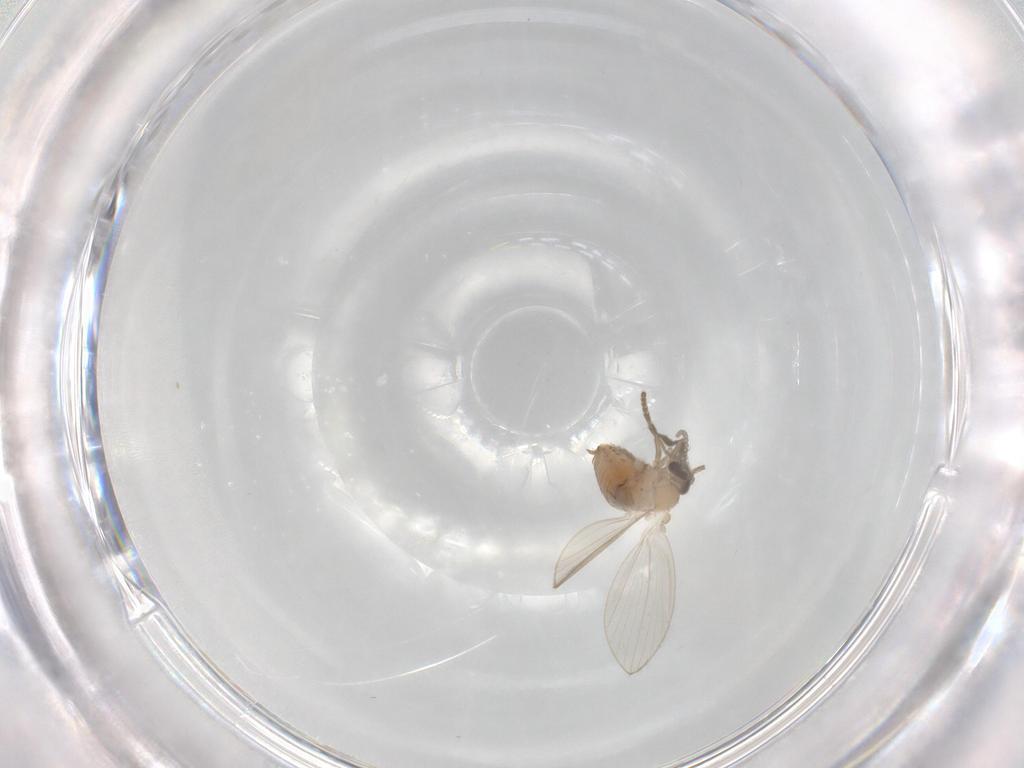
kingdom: Animalia
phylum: Arthropoda
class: Insecta
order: Diptera
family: Psychodidae
